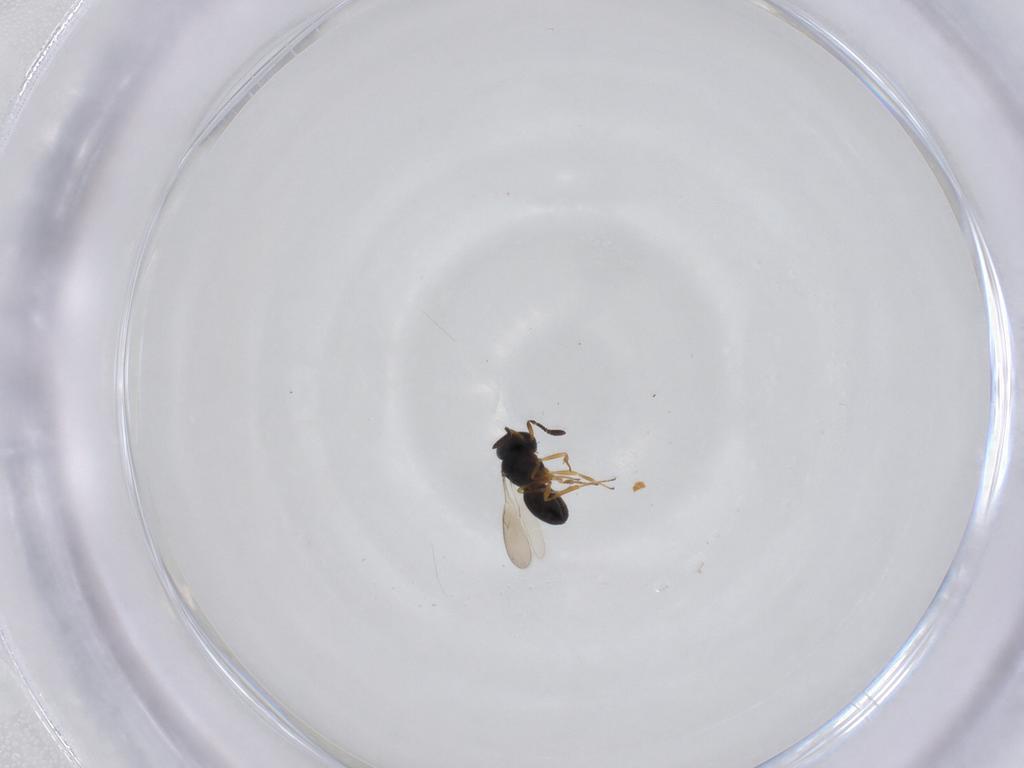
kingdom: Animalia
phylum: Arthropoda
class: Insecta
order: Hymenoptera
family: Scelionidae
